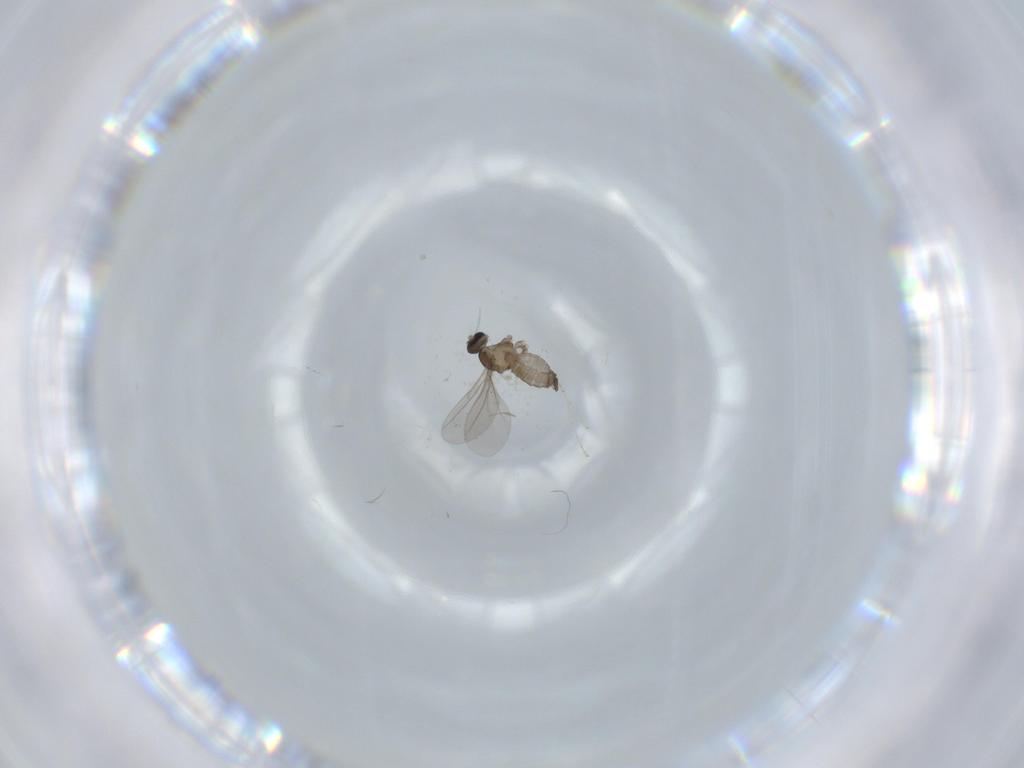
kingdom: Animalia
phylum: Arthropoda
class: Insecta
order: Diptera
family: Cecidomyiidae
